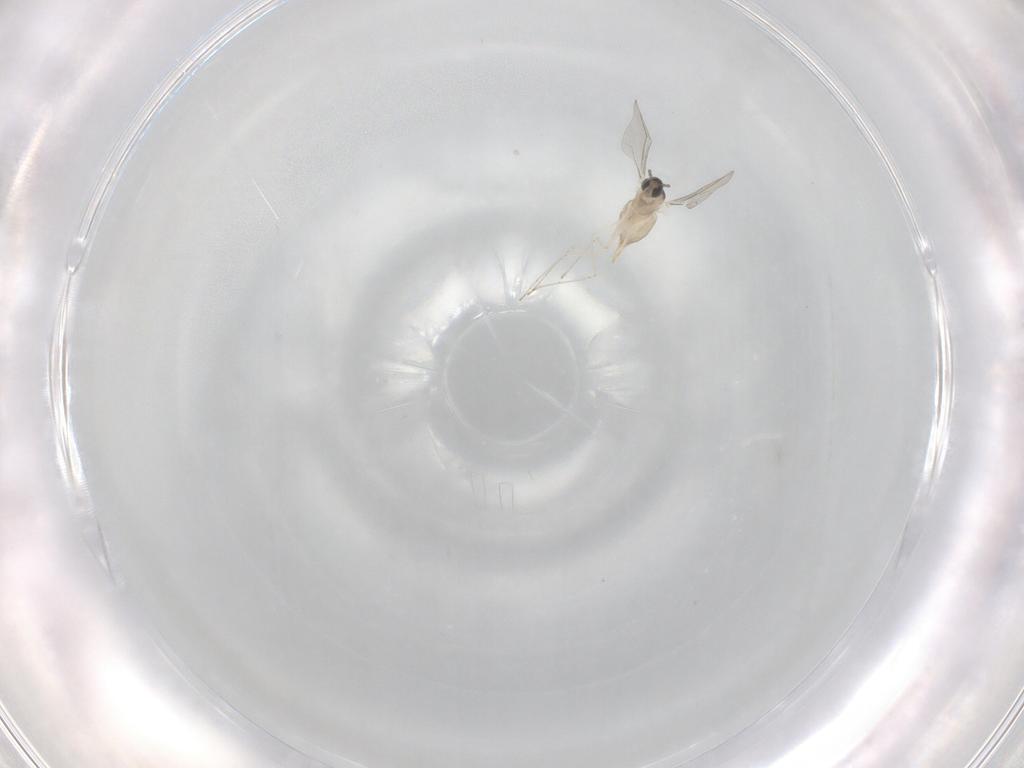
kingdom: Animalia
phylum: Arthropoda
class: Insecta
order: Diptera
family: Cecidomyiidae
